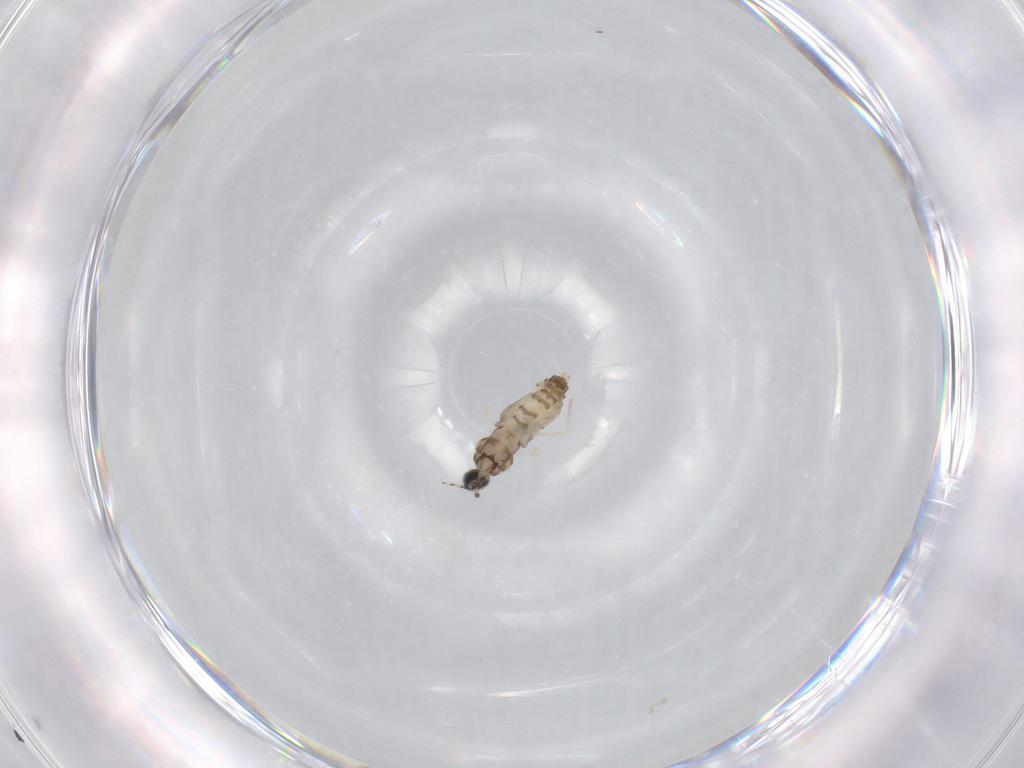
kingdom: Animalia
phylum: Arthropoda
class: Insecta
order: Diptera
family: Cecidomyiidae
